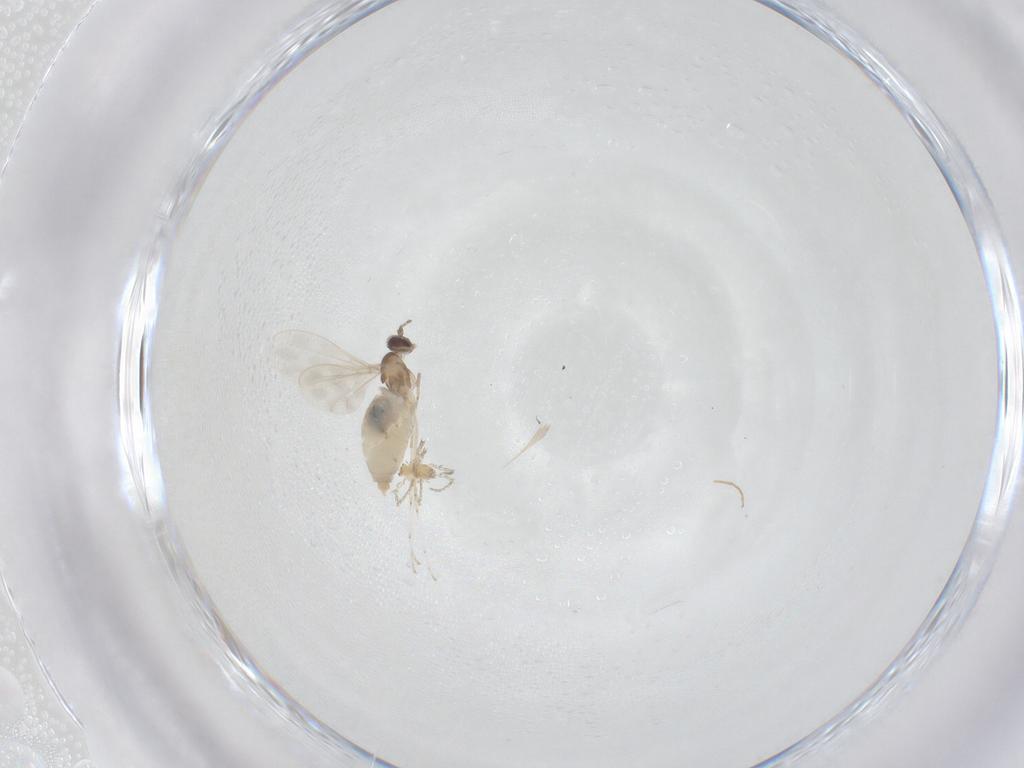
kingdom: Animalia
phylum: Arthropoda
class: Insecta
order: Diptera
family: Cecidomyiidae
